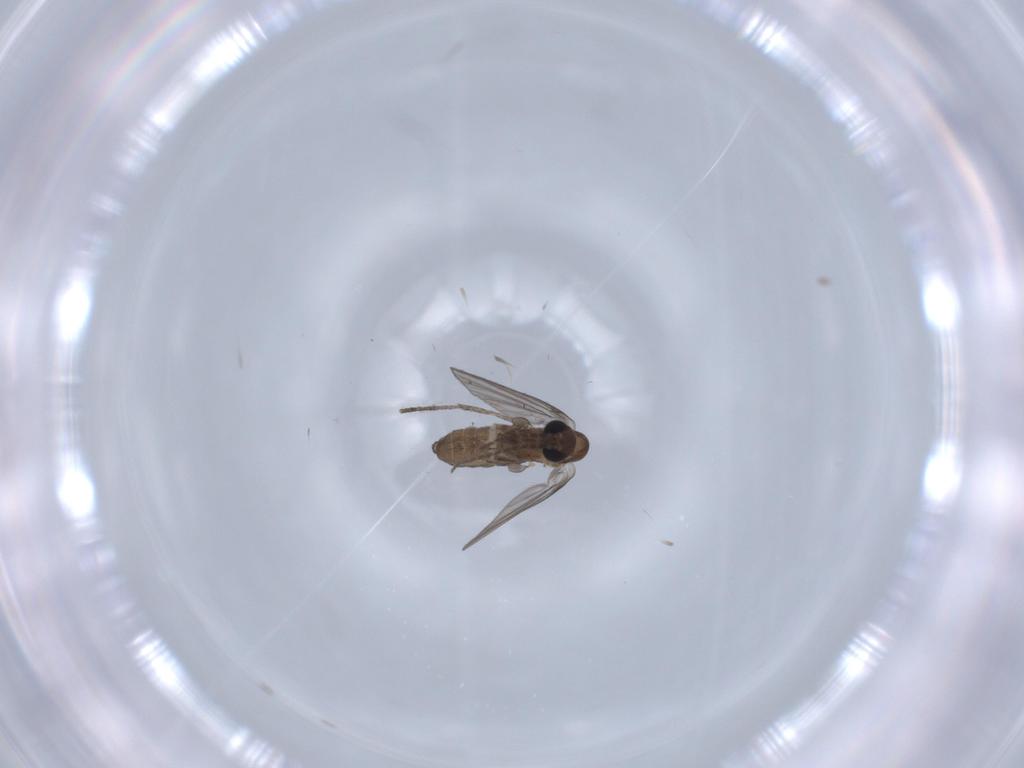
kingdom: Animalia
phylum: Arthropoda
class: Insecta
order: Diptera
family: Psychodidae
